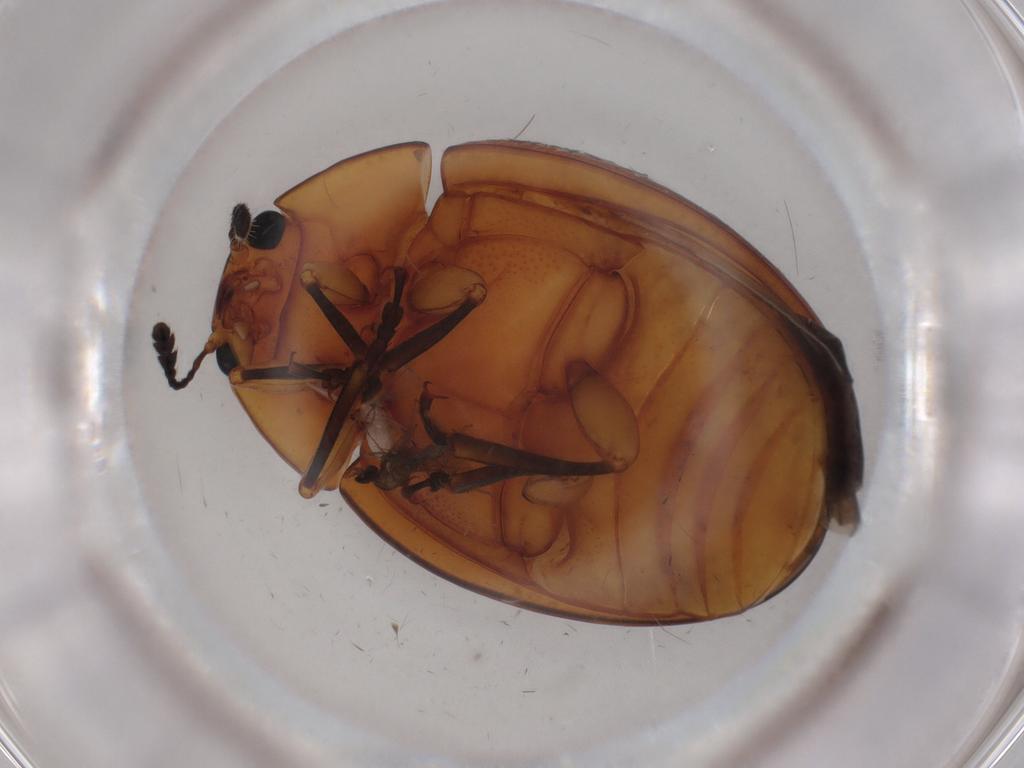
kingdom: Animalia
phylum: Arthropoda
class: Insecta
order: Coleoptera
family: Erotylidae
